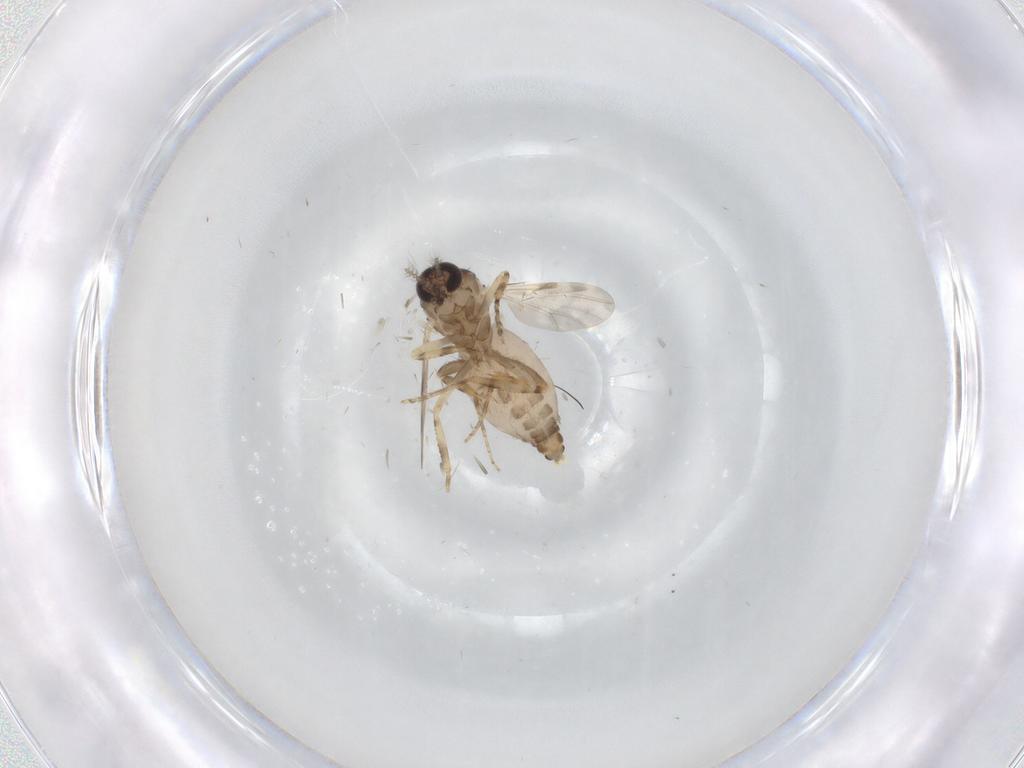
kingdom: Animalia
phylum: Arthropoda
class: Insecta
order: Diptera
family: Ceratopogonidae
